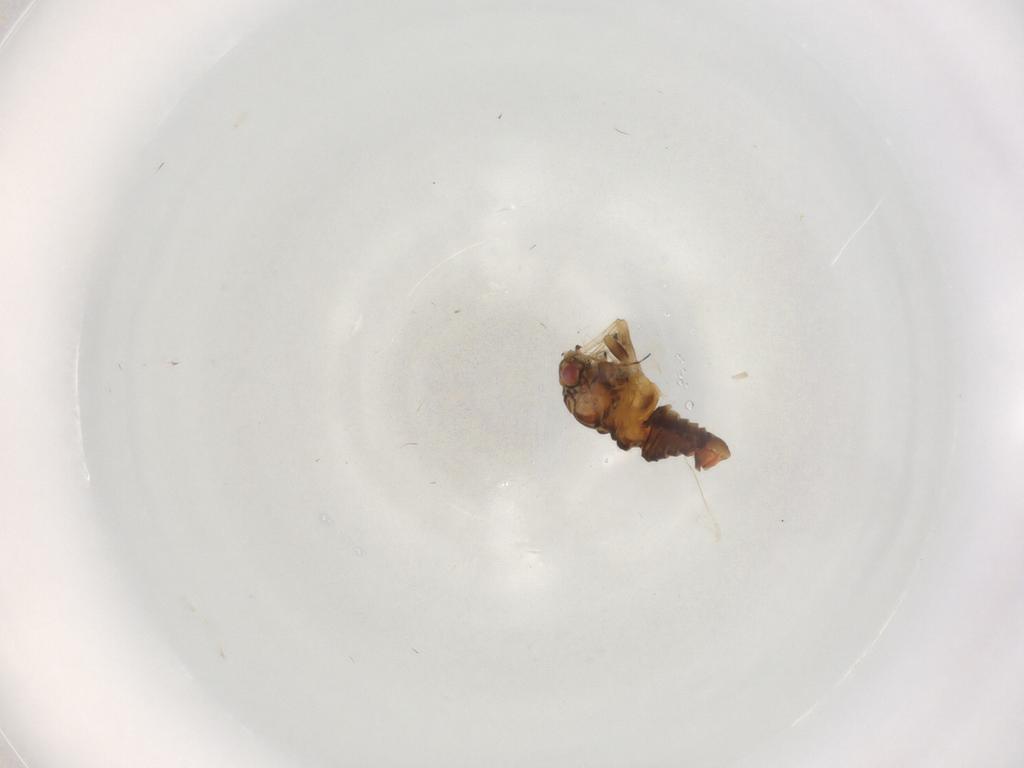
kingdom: Animalia
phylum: Arthropoda
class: Insecta
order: Hemiptera
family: Psyllidae
